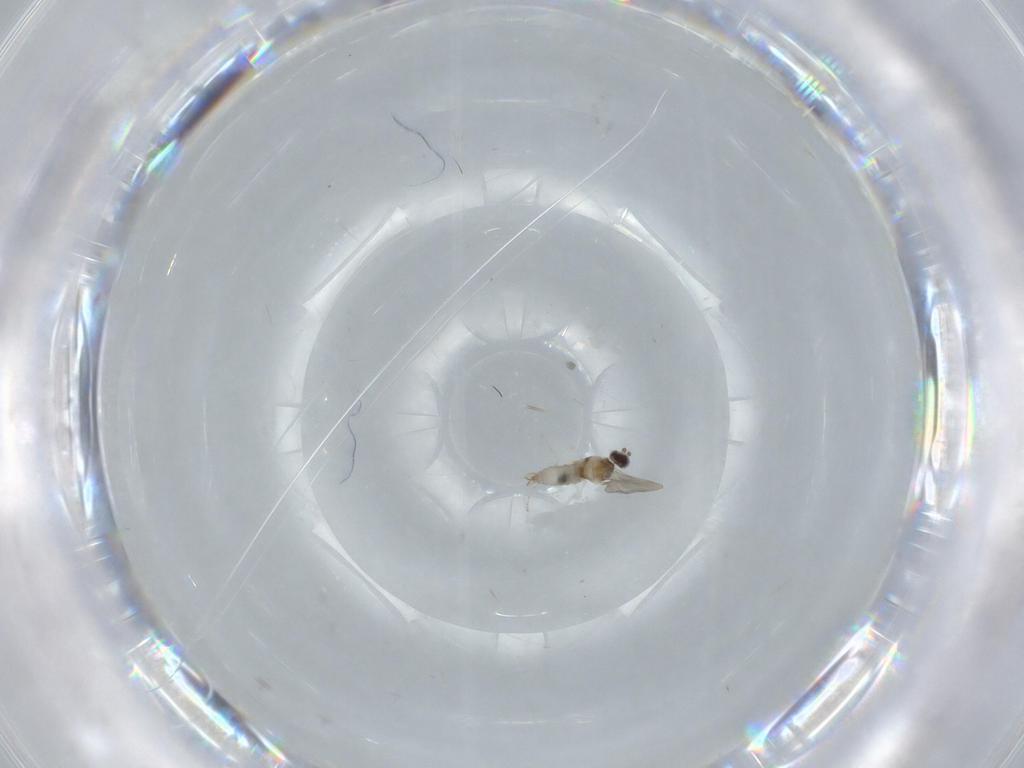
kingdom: Animalia
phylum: Arthropoda
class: Insecta
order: Diptera
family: Cecidomyiidae
